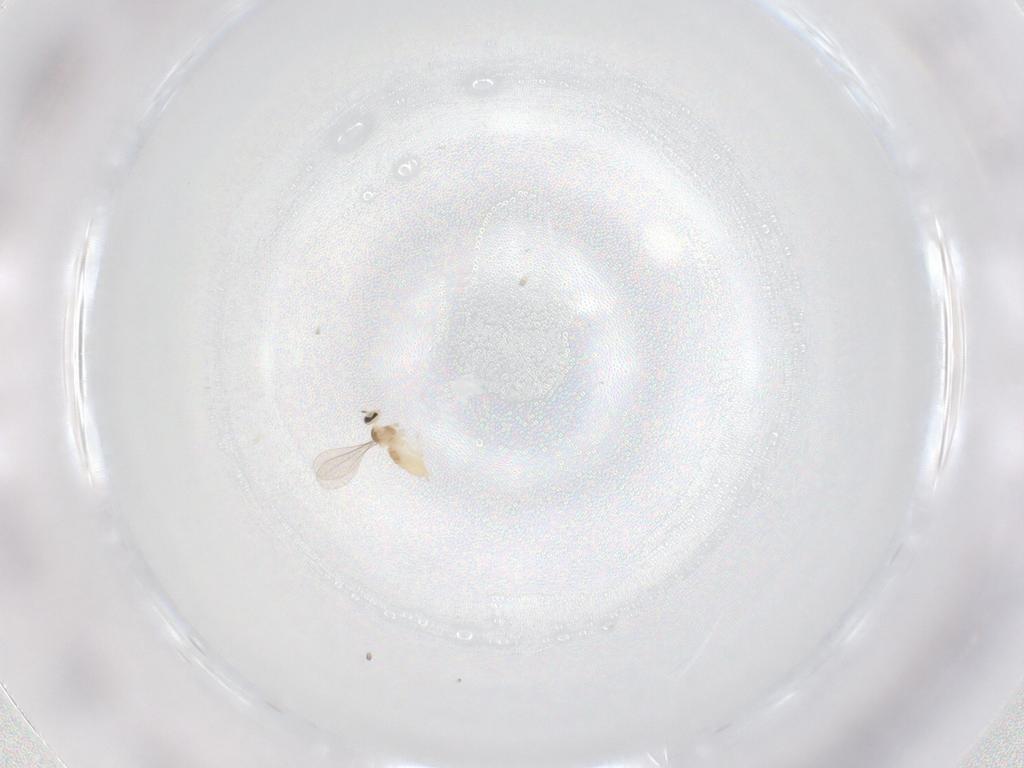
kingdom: Animalia
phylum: Arthropoda
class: Insecta
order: Diptera
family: Cecidomyiidae
